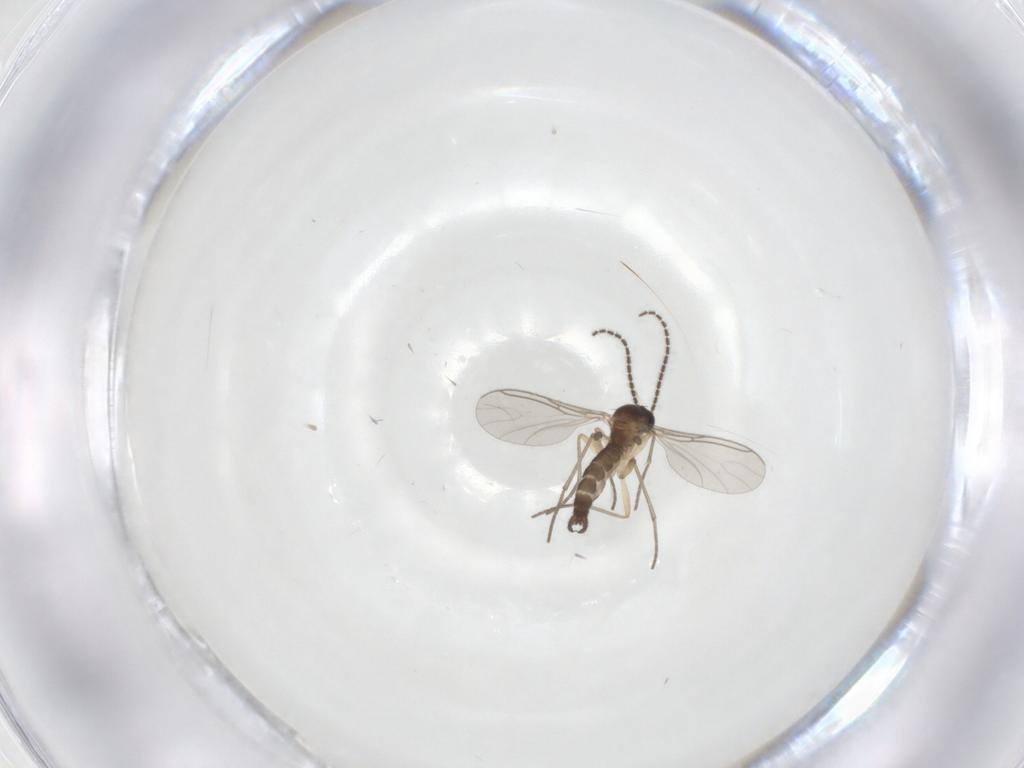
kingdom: Animalia
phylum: Arthropoda
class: Insecta
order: Diptera
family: Sciaridae
